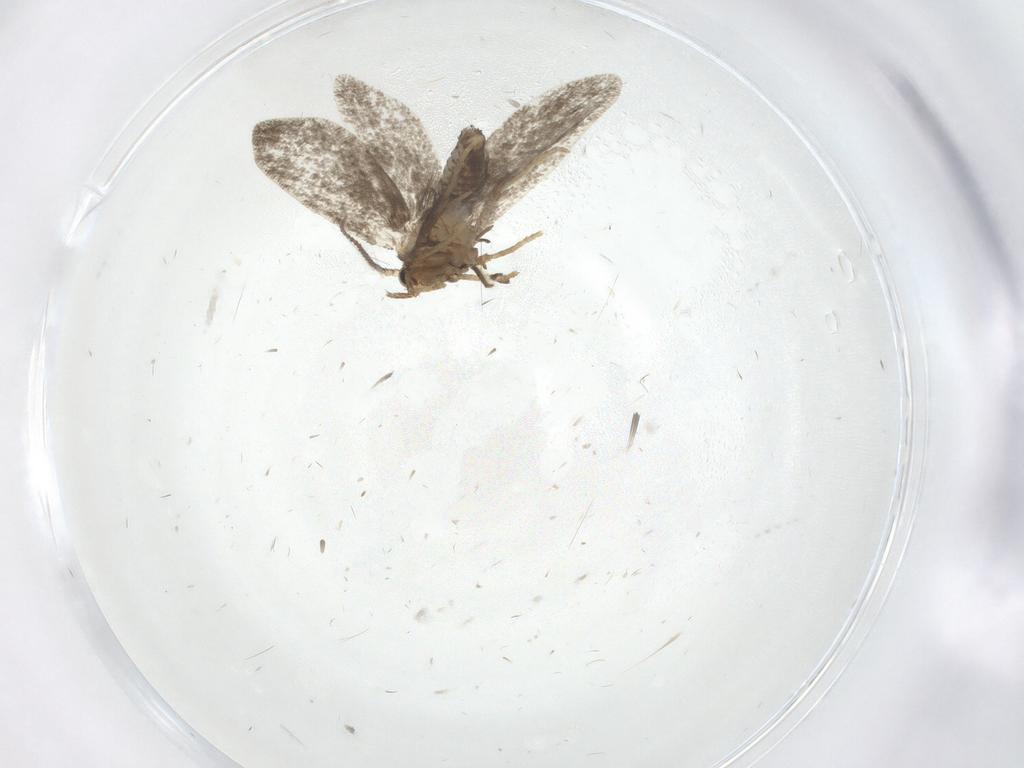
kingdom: Animalia
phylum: Arthropoda
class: Insecta
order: Lepidoptera
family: Psychidae
